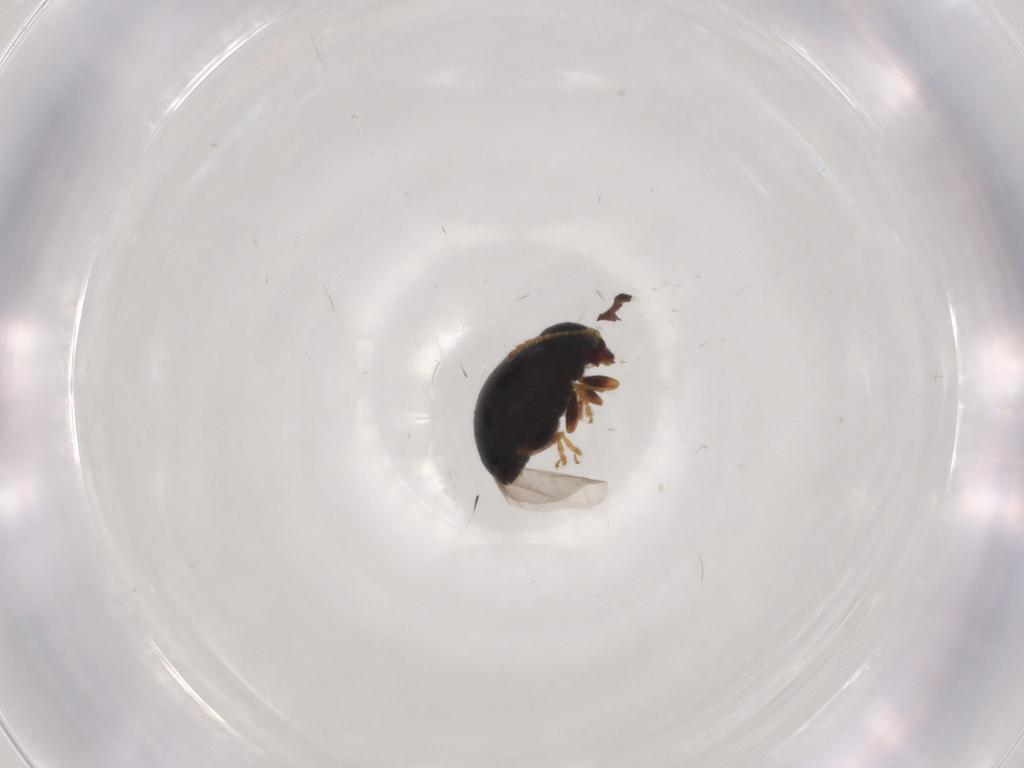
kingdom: Animalia
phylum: Arthropoda
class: Insecta
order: Coleoptera
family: Chrysomelidae
